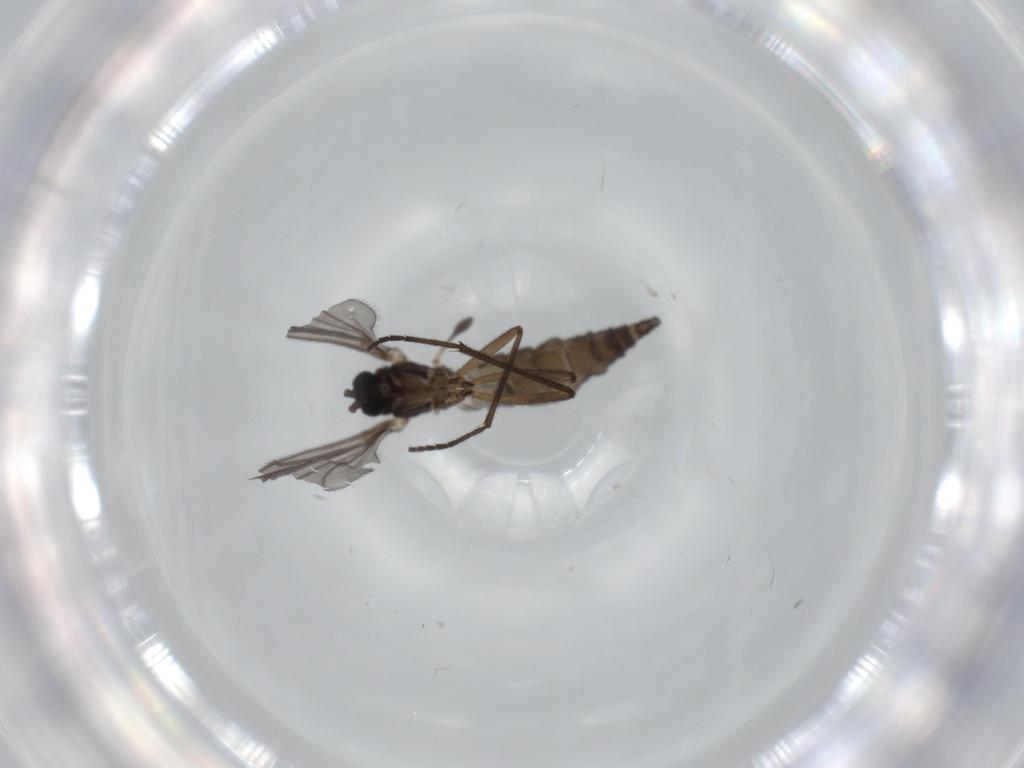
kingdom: Animalia
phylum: Arthropoda
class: Insecta
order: Diptera
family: Sciaridae
